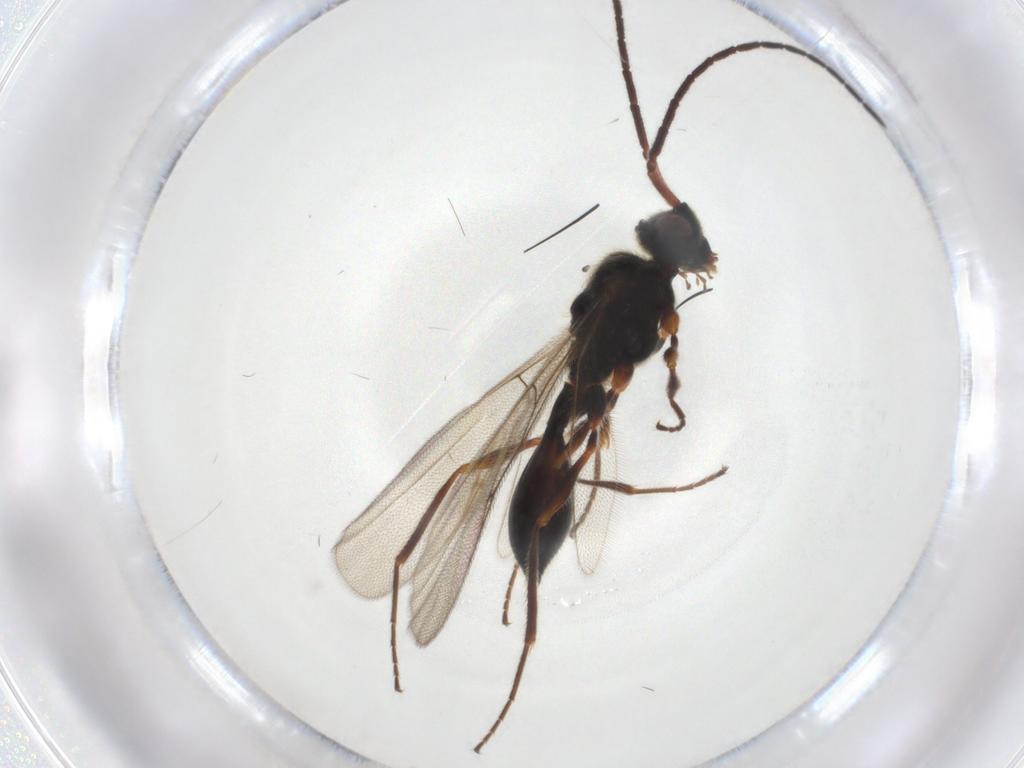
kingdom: Animalia
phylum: Arthropoda
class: Insecta
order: Hymenoptera
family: Diapriidae
